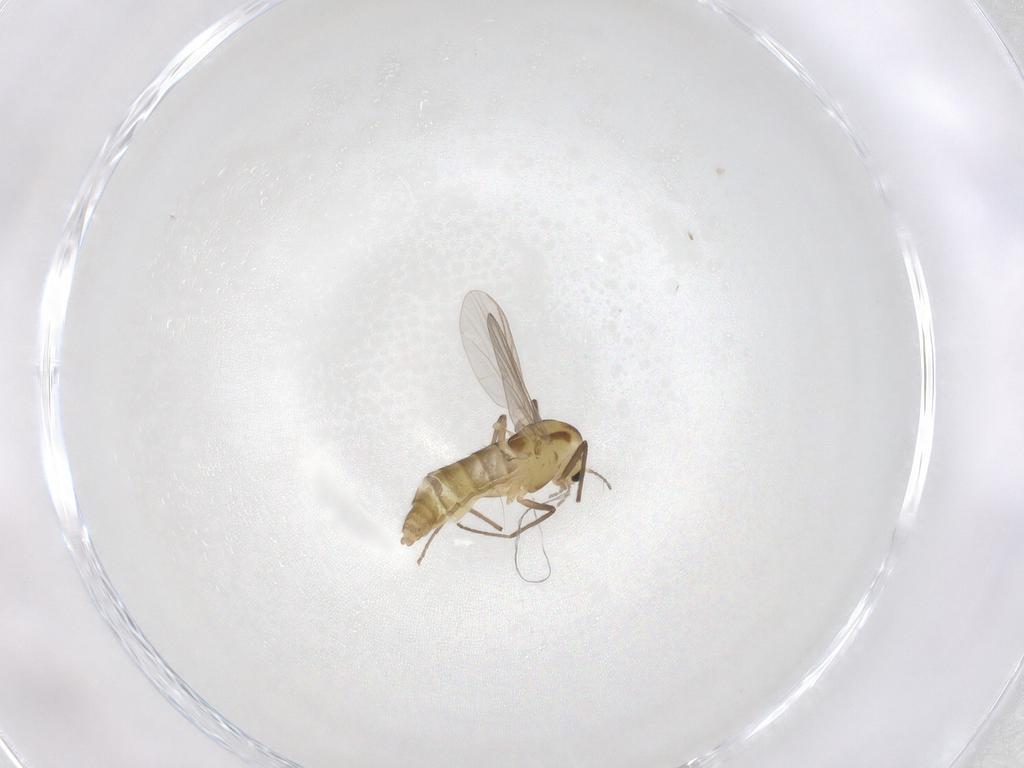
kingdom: Animalia
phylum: Arthropoda
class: Insecta
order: Diptera
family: Chironomidae
